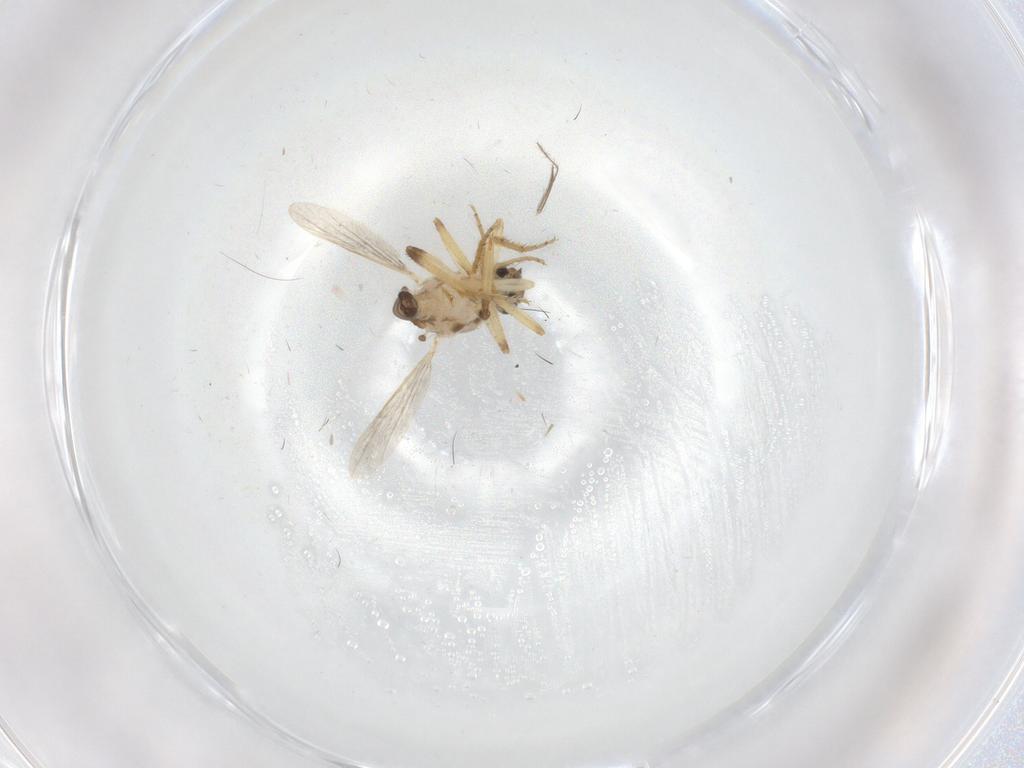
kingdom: Animalia
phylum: Arthropoda
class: Insecta
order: Diptera
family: Ceratopogonidae
